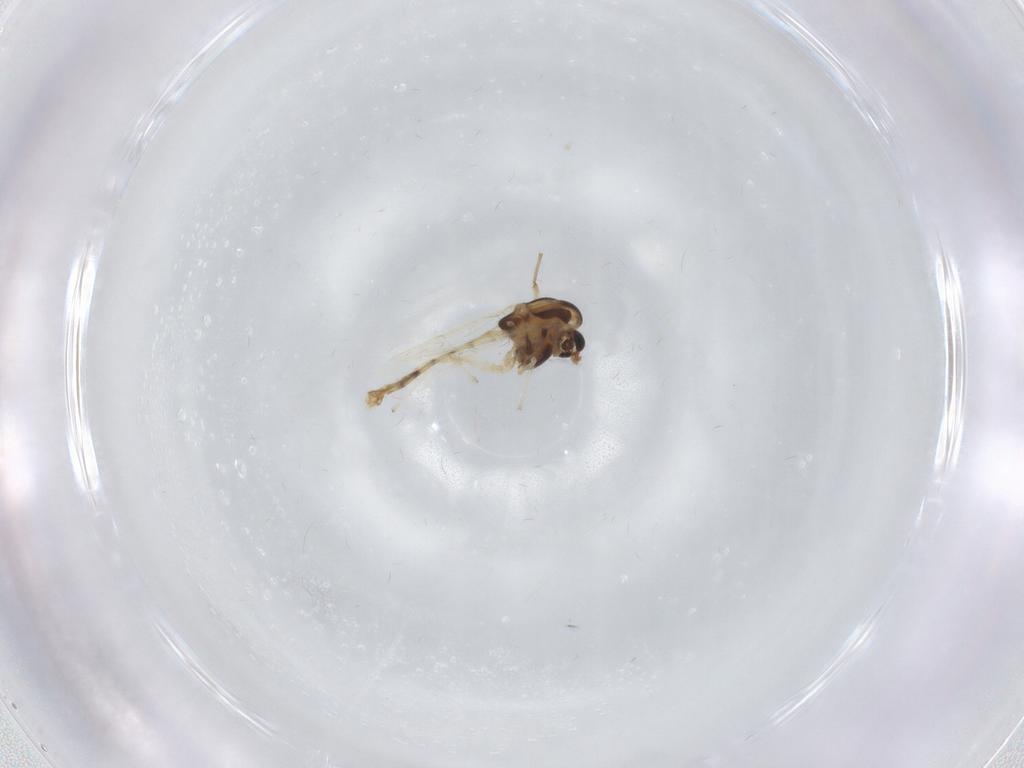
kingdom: Animalia
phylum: Arthropoda
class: Insecta
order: Diptera
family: Chironomidae
